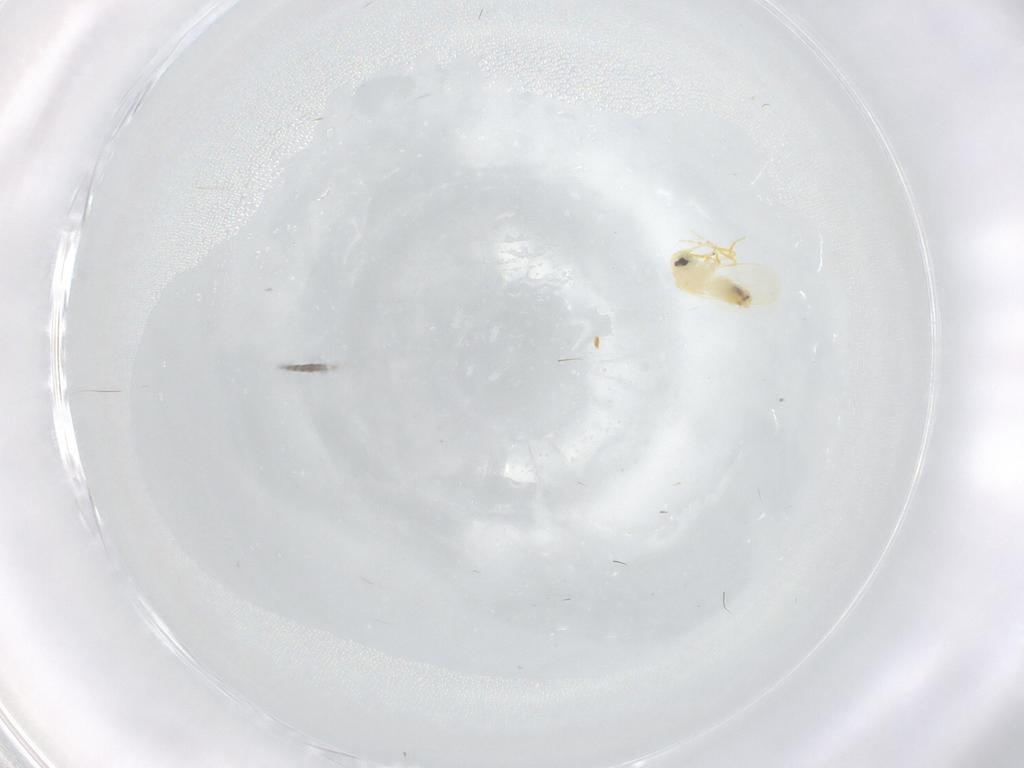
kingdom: Animalia
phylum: Arthropoda
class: Insecta
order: Hemiptera
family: Aleyrodidae
